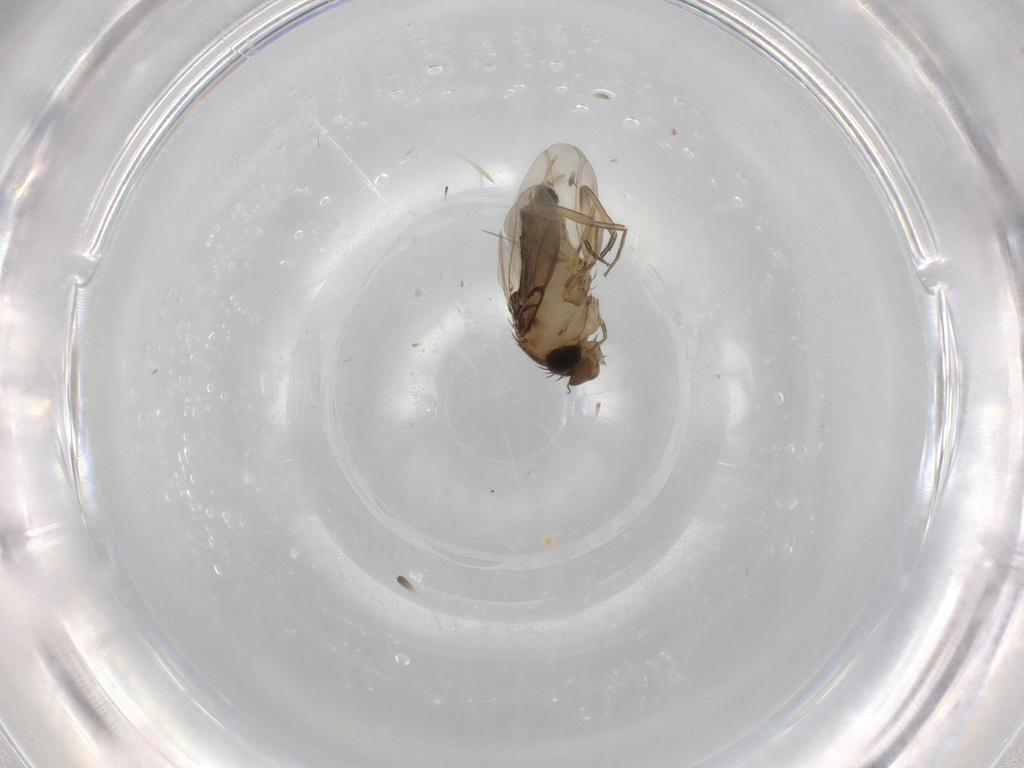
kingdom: Animalia
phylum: Arthropoda
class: Insecta
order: Diptera
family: Phoridae
